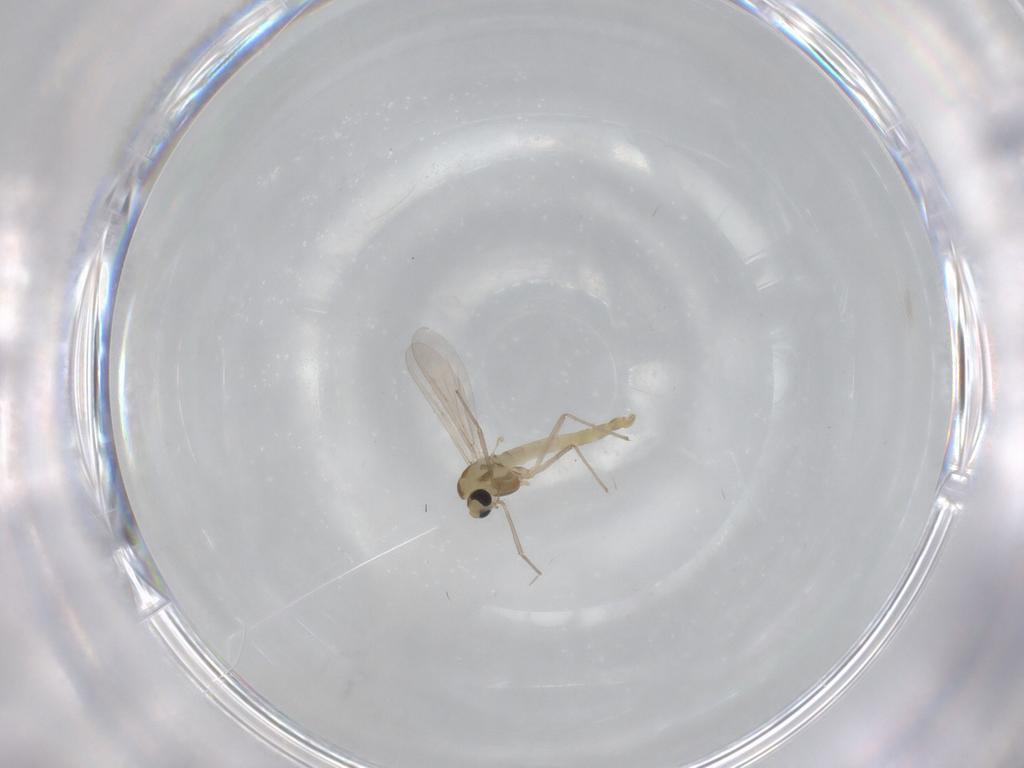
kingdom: Animalia
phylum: Arthropoda
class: Insecta
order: Diptera
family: Chironomidae
